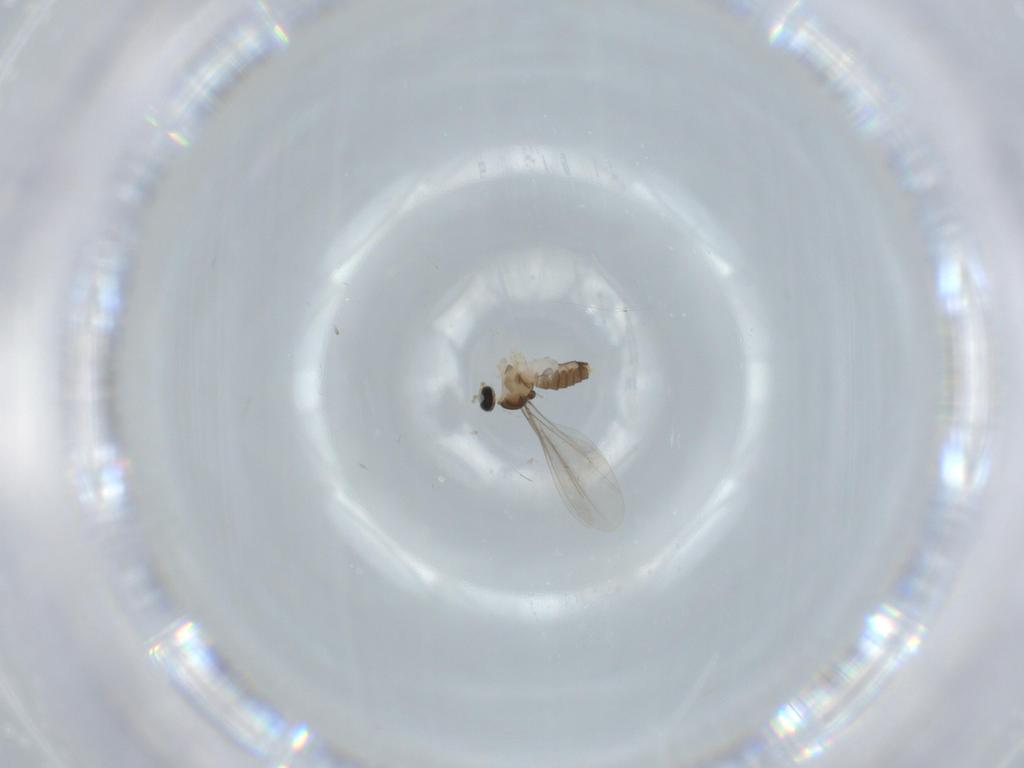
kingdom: Animalia
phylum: Arthropoda
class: Insecta
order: Diptera
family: Cecidomyiidae
